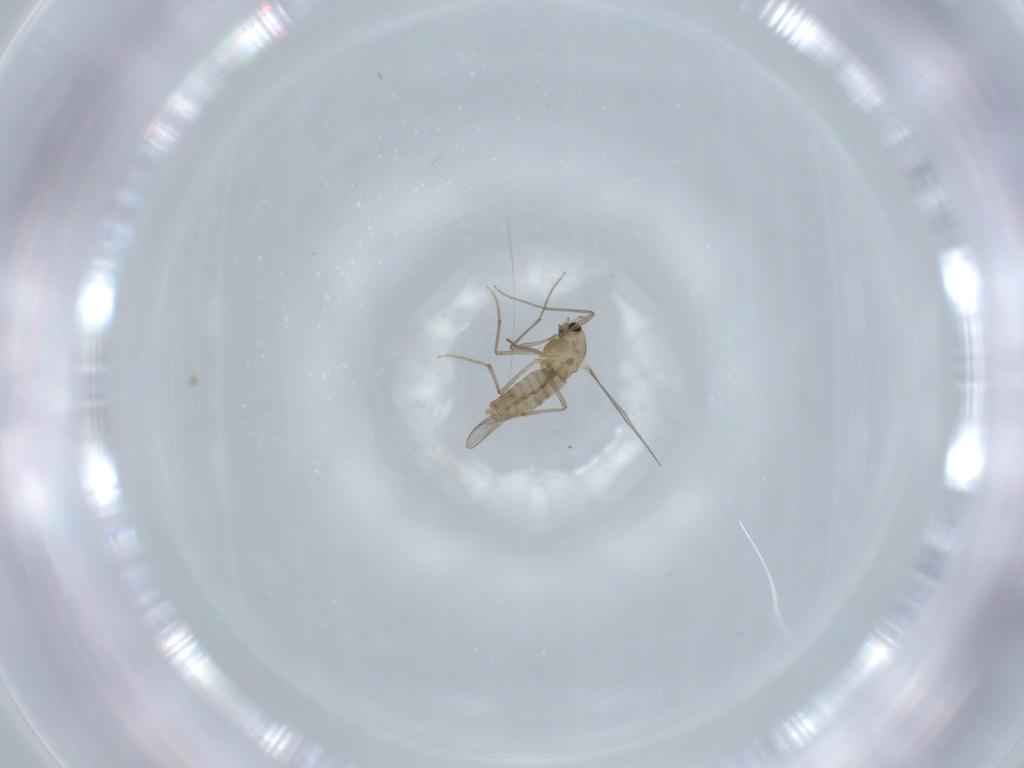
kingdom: Animalia
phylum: Arthropoda
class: Insecta
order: Diptera
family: Chironomidae
